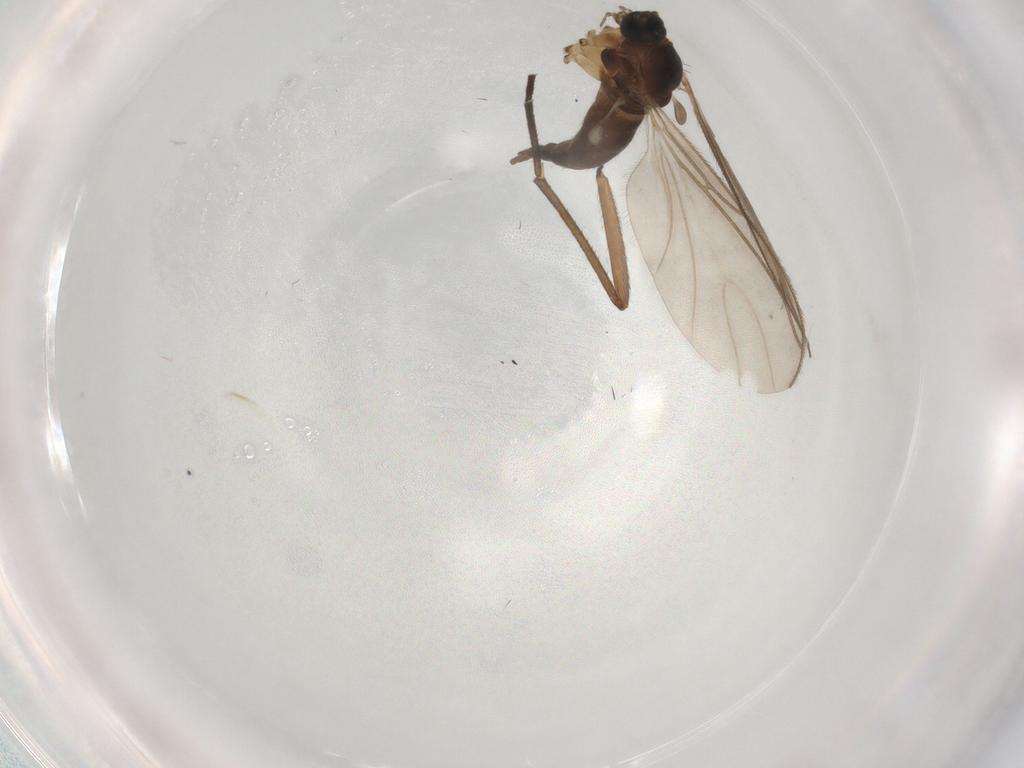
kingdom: Animalia
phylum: Arthropoda
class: Insecta
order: Diptera
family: Sciaridae
